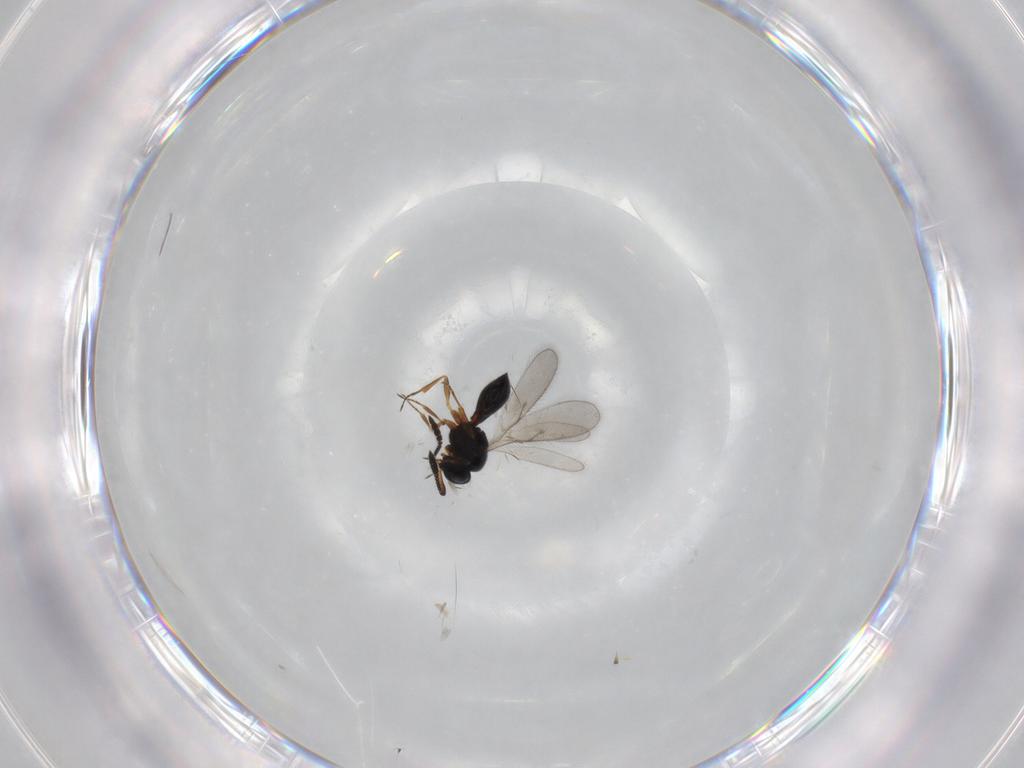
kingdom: Animalia
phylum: Arthropoda
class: Insecta
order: Hymenoptera
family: Scelionidae
